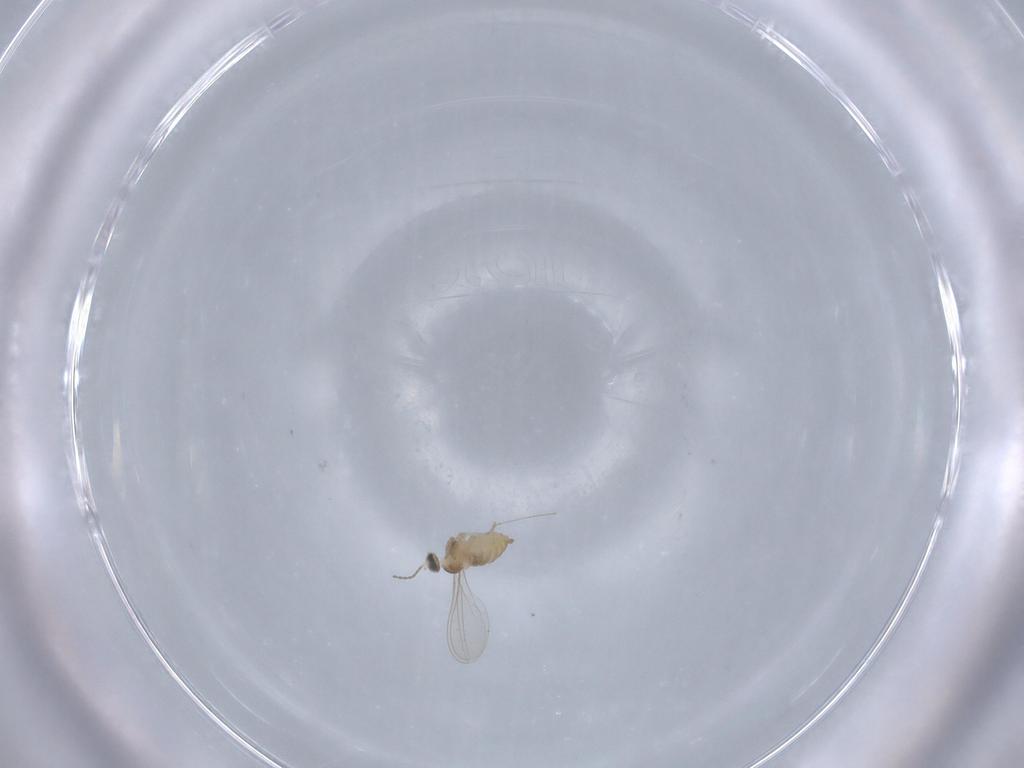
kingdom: Animalia
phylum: Arthropoda
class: Insecta
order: Diptera
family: Cecidomyiidae
